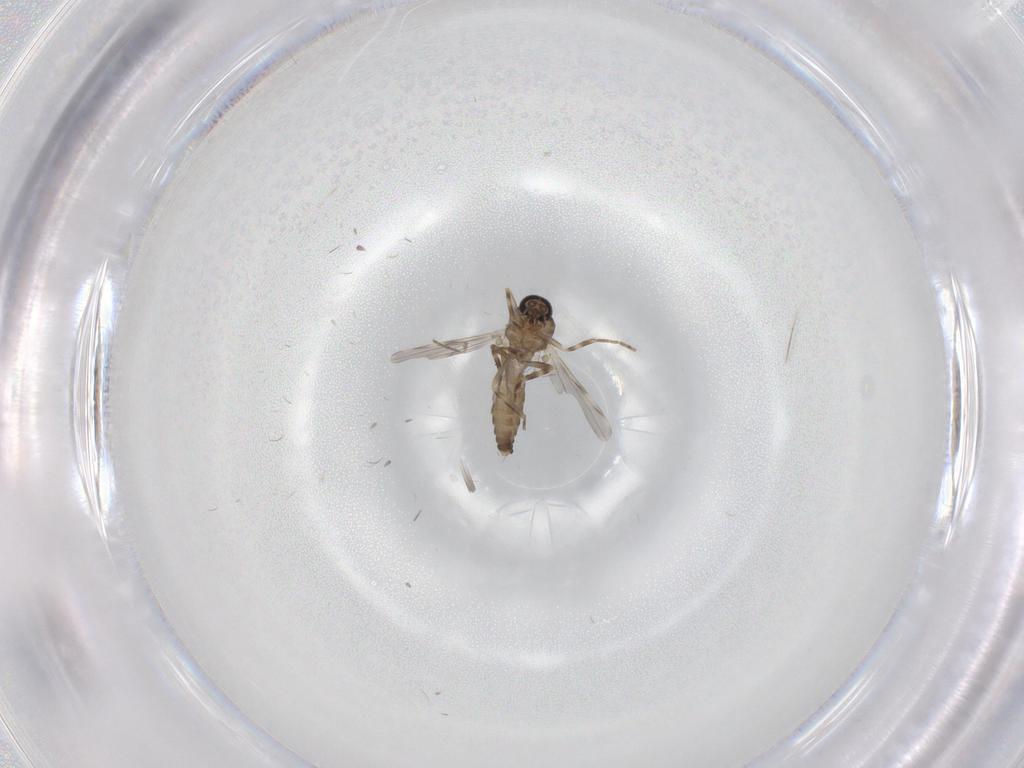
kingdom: Animalia
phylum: Arthropoda
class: Insecta
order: Diptera
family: Ceratopogonidae
